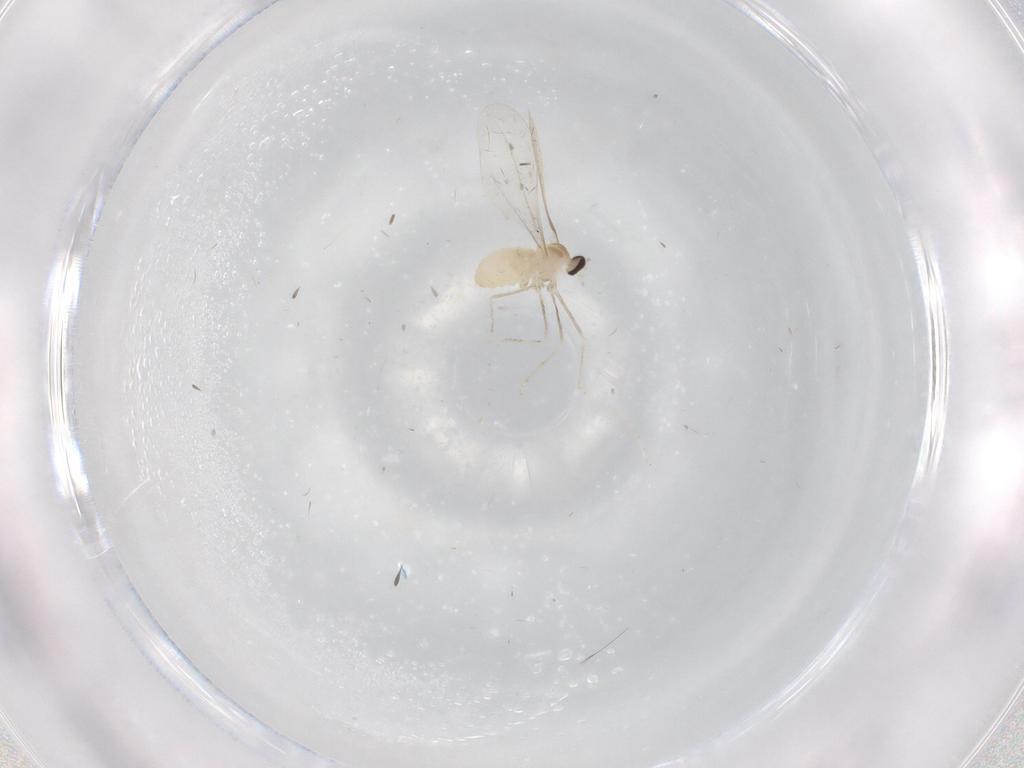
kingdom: Animalia
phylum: Arthropoda
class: Insecta
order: Diptera
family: Cecidomyiidae
